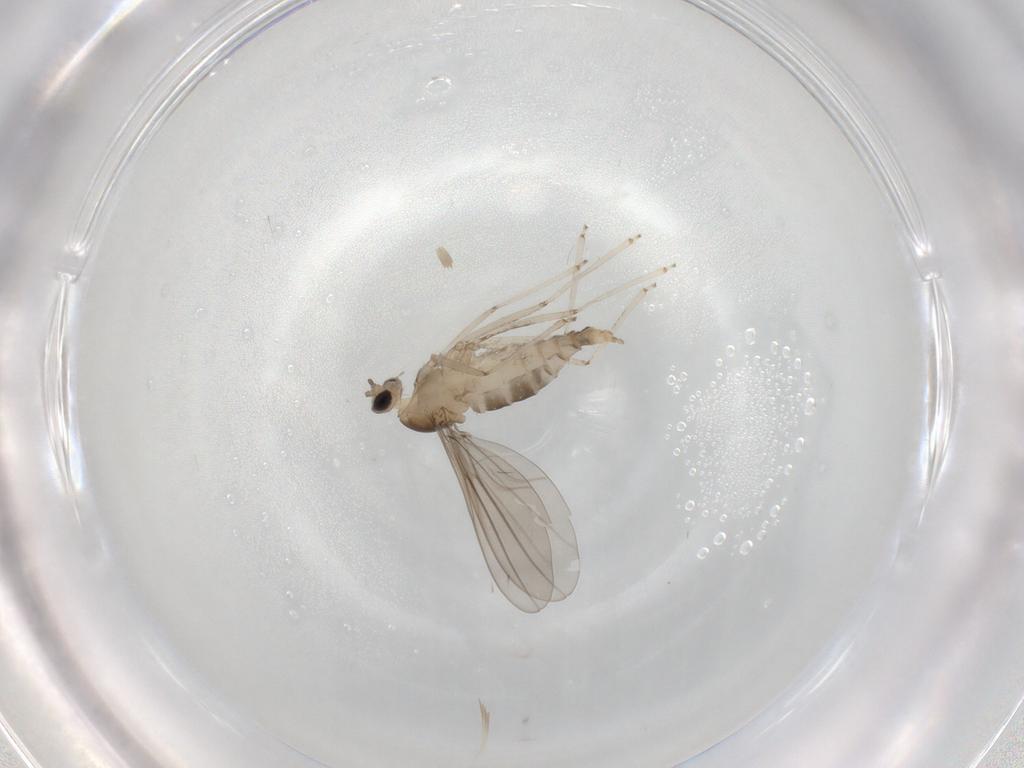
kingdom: Animalia
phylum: Arthropoda
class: Insecta
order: Diptera
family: Cecidomyiidae
